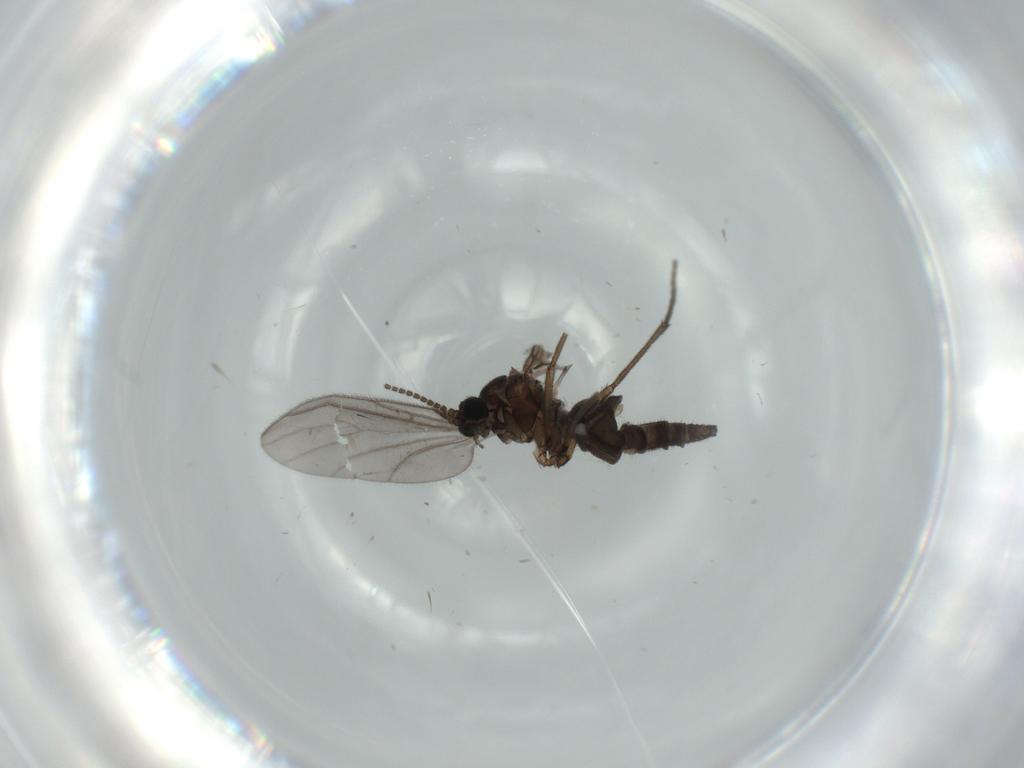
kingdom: Animalia
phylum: Arthropoda
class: Insecta
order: Diptera
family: Sciaridae
